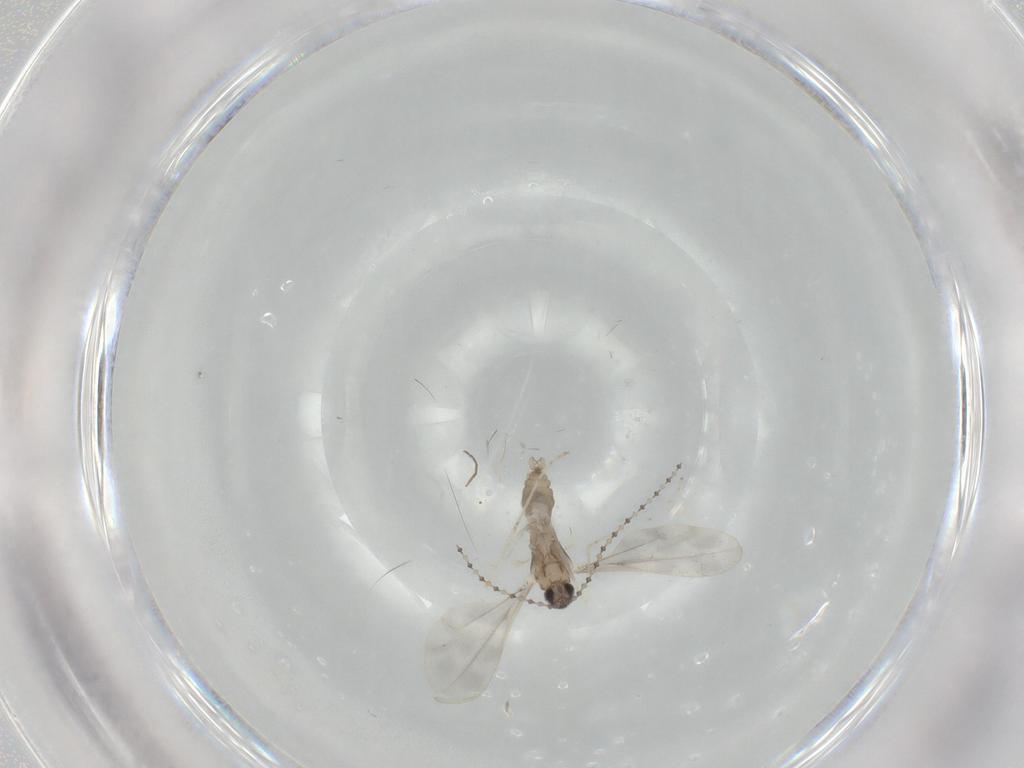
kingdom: Animalia
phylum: Arthropoda
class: Insecta
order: Diptera
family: Cecidomyiidae
